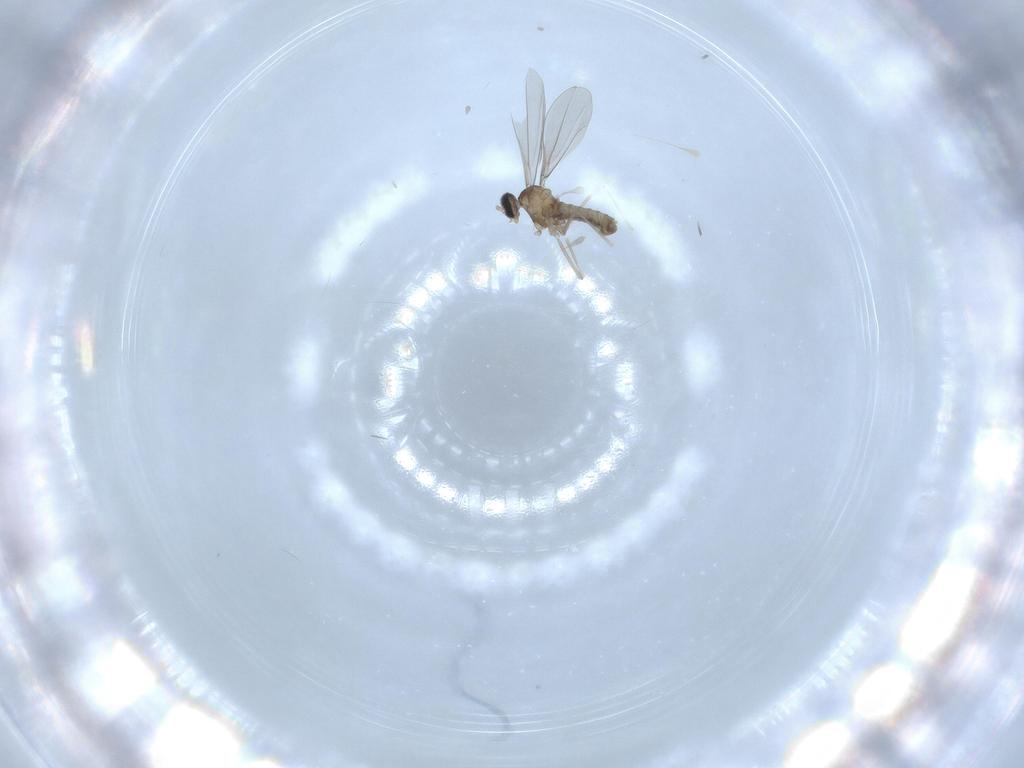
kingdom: Animalia
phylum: Arthropoda
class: Insecta
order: Diptera
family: Cecidomyiidae
